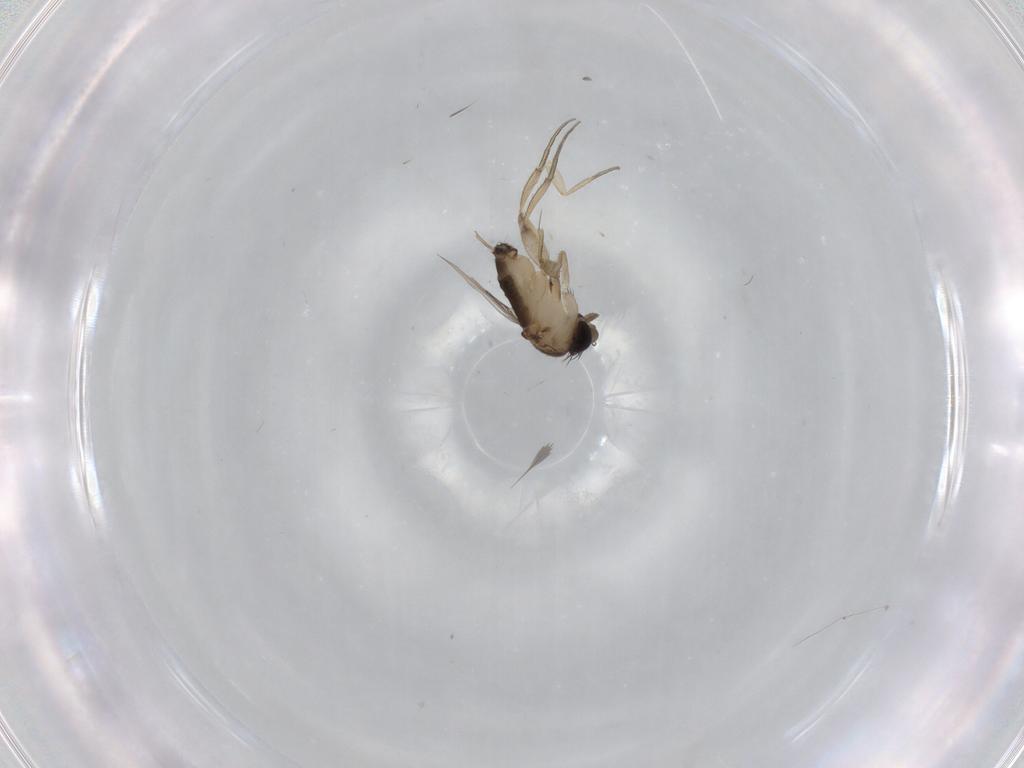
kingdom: Animalia
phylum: Arthropoda
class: Insecta
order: Diptera
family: Phoridae
